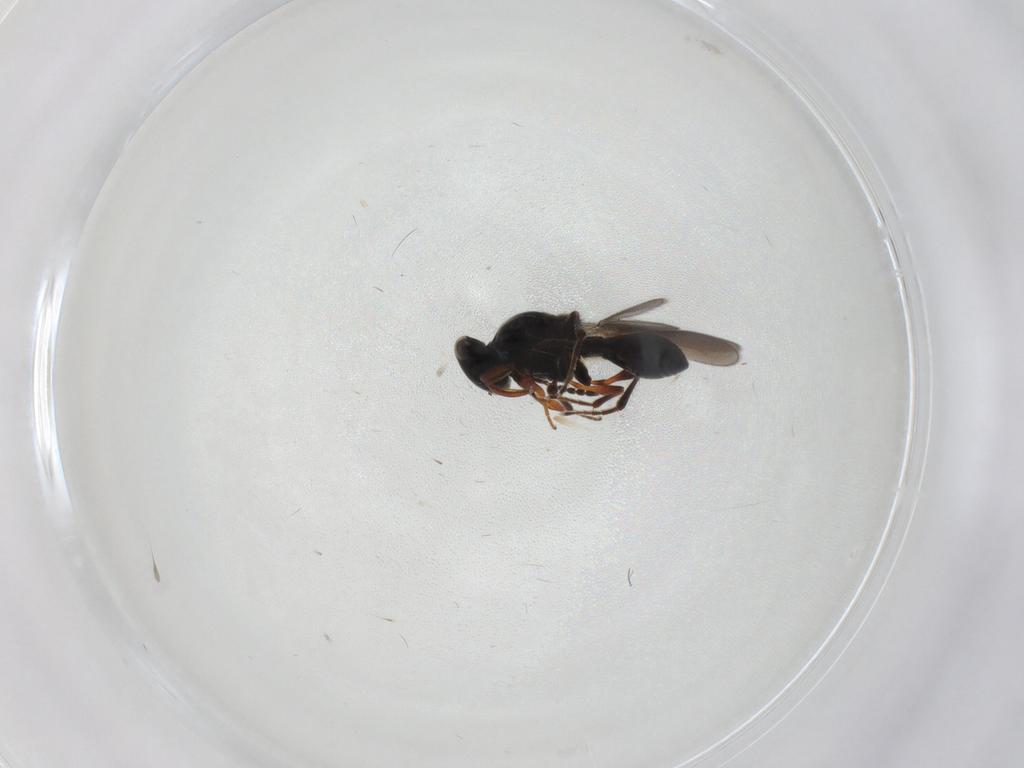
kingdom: Animalia
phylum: Arthropoda
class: Insecta
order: Hymenoptera
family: Platygastridae
